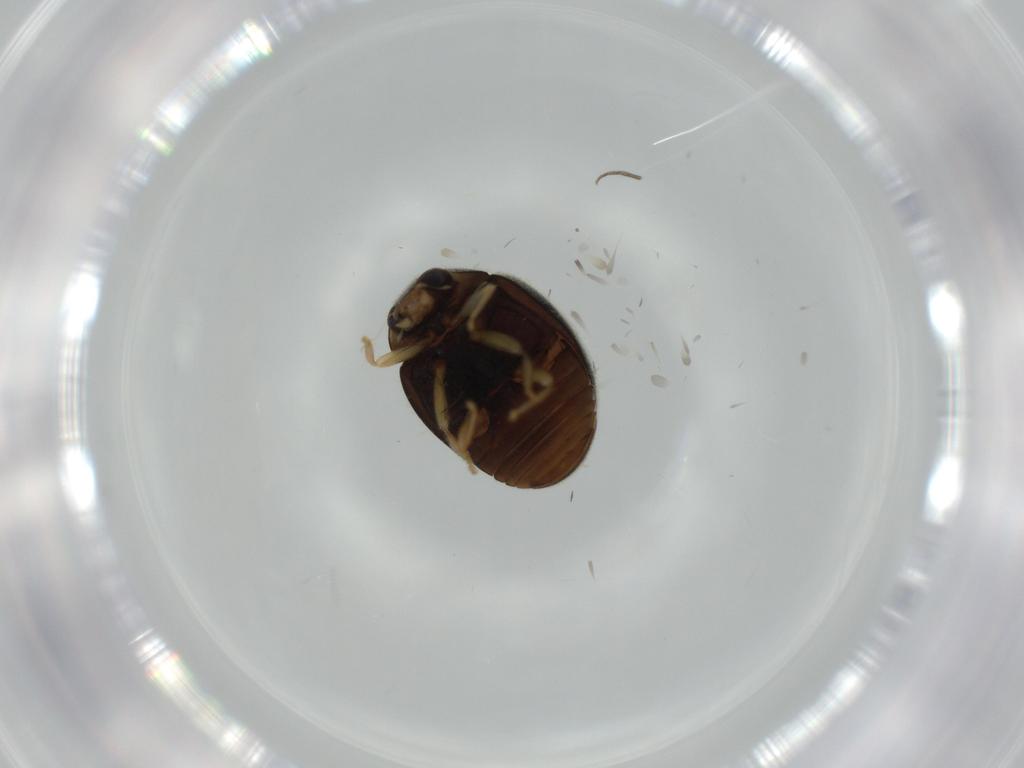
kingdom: Animalia
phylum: Arthropoda
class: Insecta
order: Coleoptera
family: Coccinellidae
